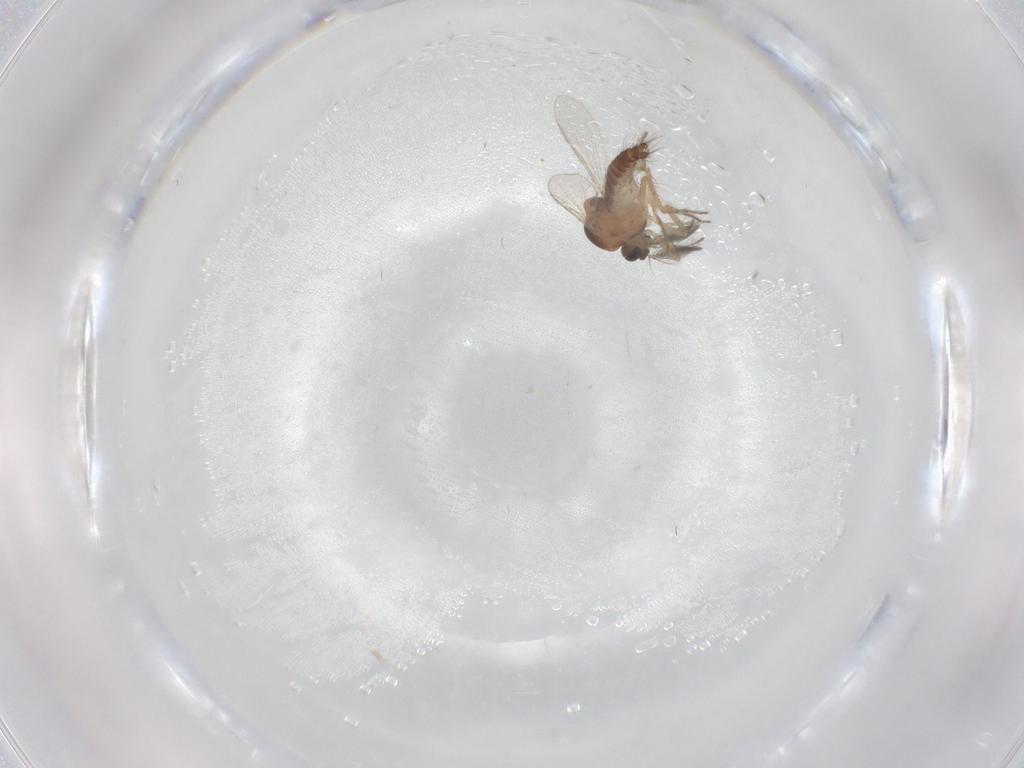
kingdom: Animalia
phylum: Arthropoda
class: Insecta
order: Diptera
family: Ceratopogonidae
